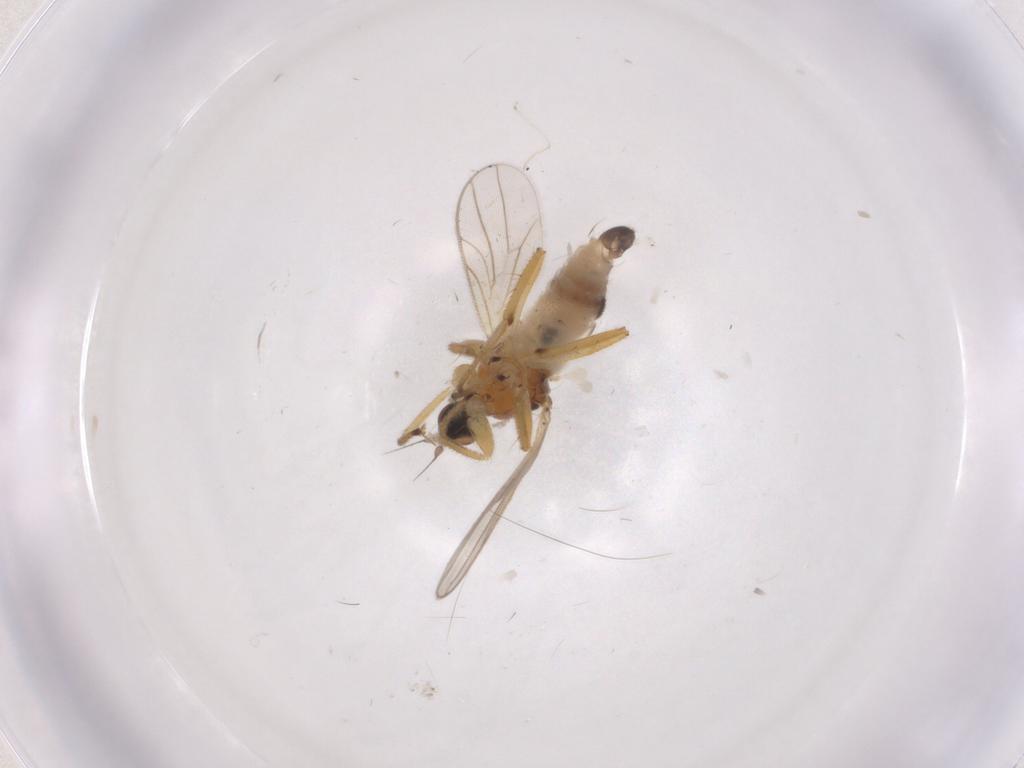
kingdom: Animalia
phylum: Arthropoda
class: Insecta
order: Diptera
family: Hybotidae
